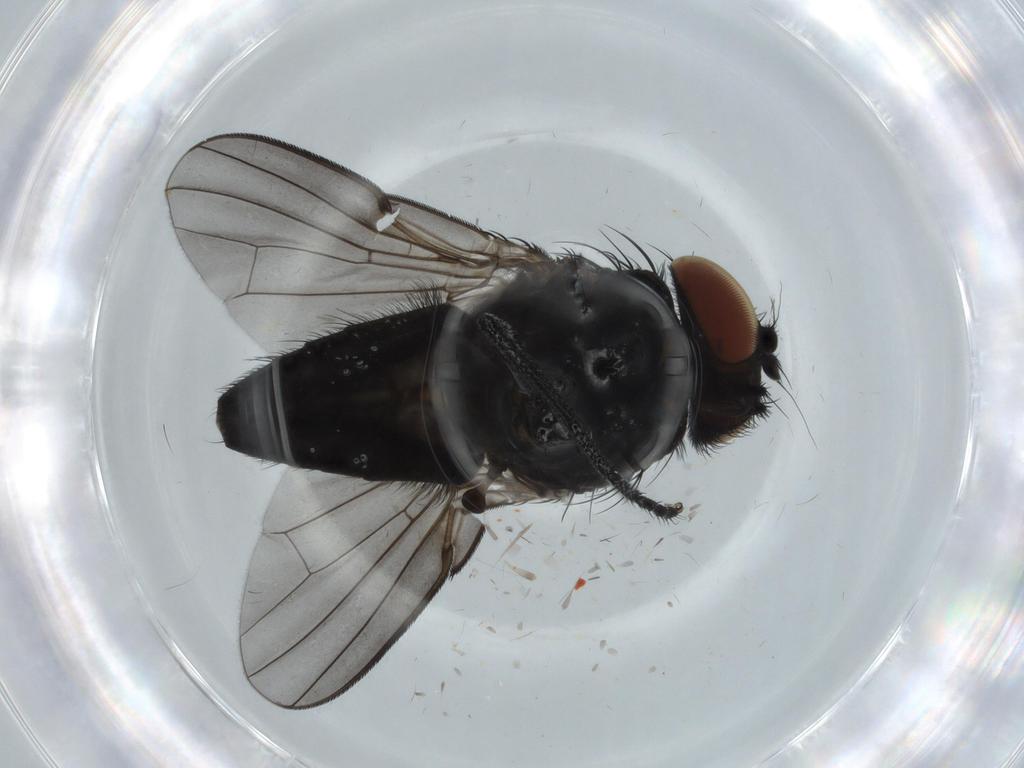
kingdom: Animalia
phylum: Arthropoda
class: Insecta
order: Diptera
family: Milichiidae
